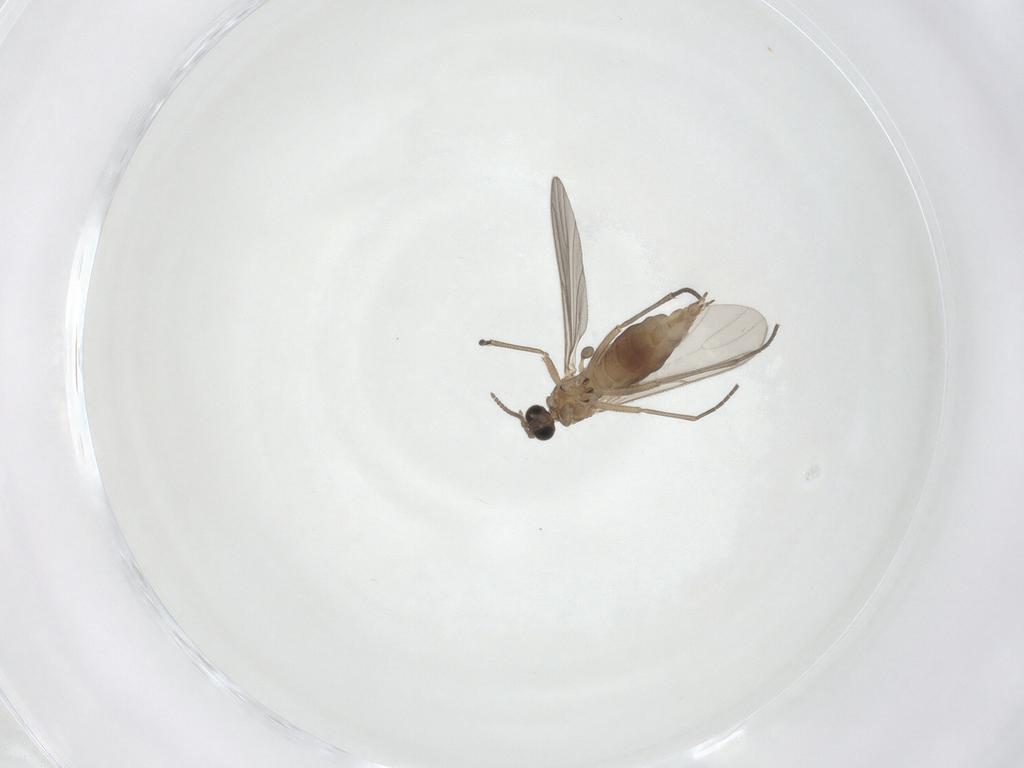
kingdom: Animalia
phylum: Arthropoda
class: Insecta
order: Diptera
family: Sciaridae
